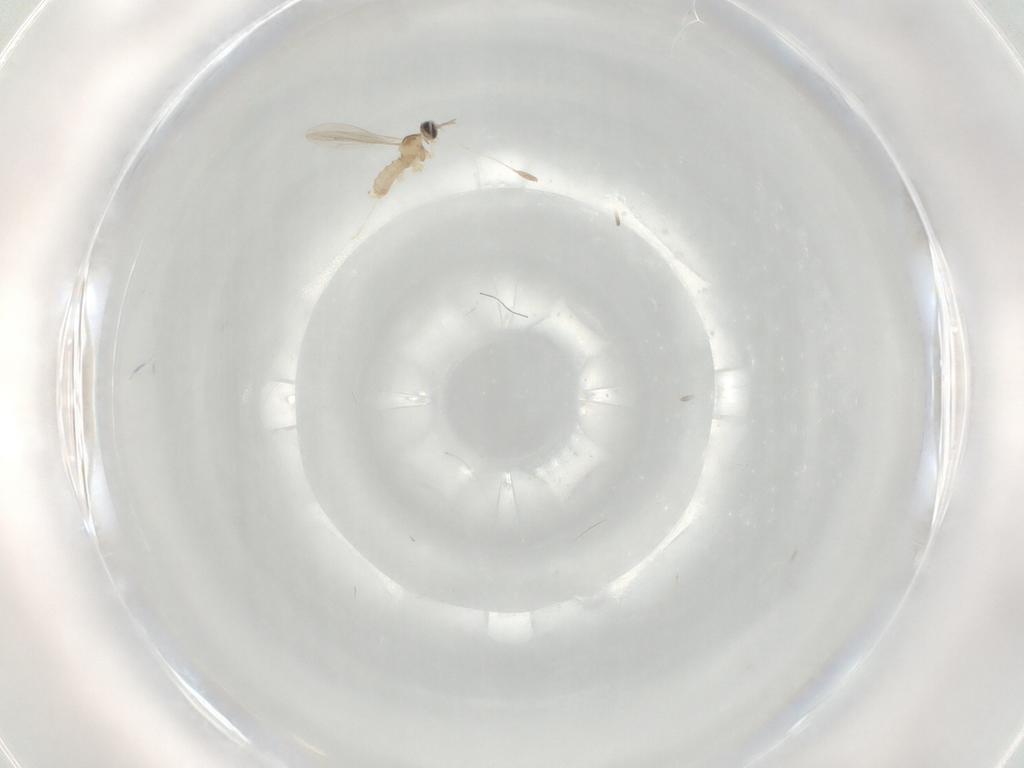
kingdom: Animalia
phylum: Arthropoda
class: Insecta
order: Diptera
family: Cecidomyiidae
